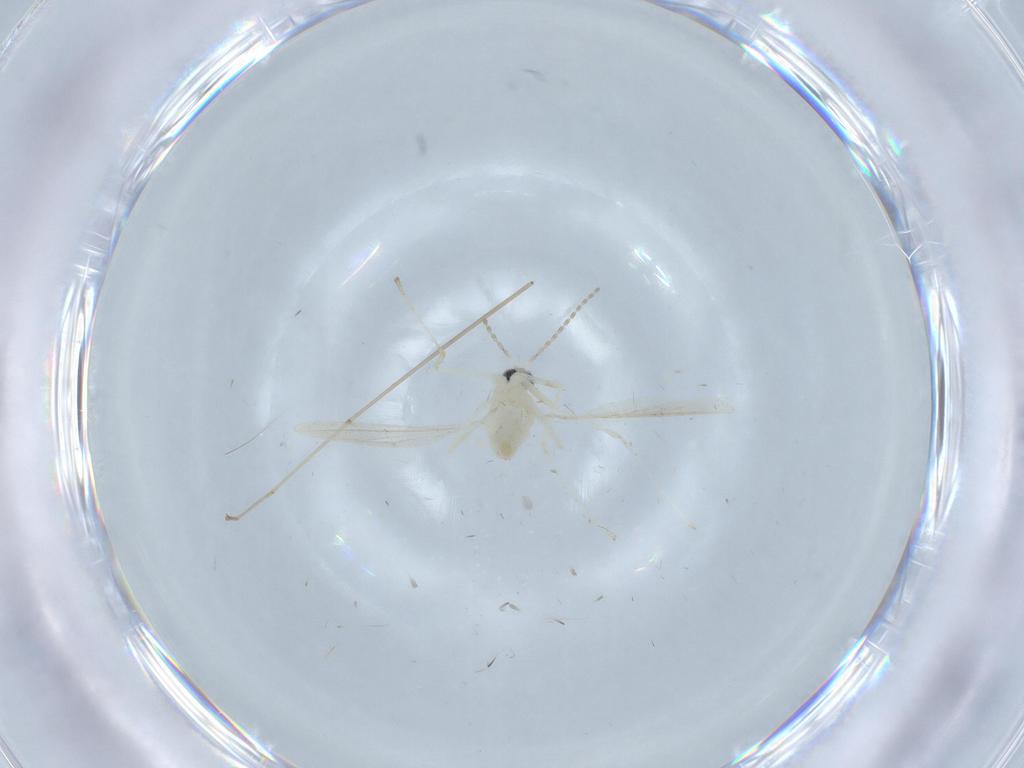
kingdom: Animalia
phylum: Arthropoda
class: Insecta
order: Diptera
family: Cecidomyiidae
